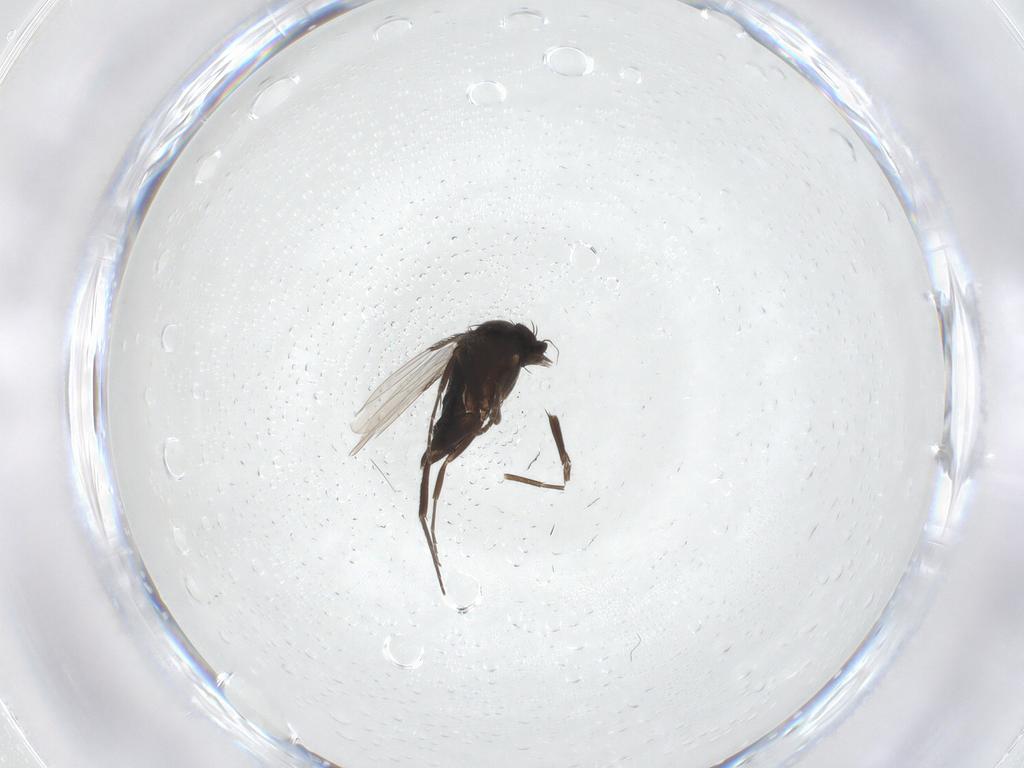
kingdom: Animalia
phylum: Arthropoda
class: Insecta
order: Diptera
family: Phoridae
